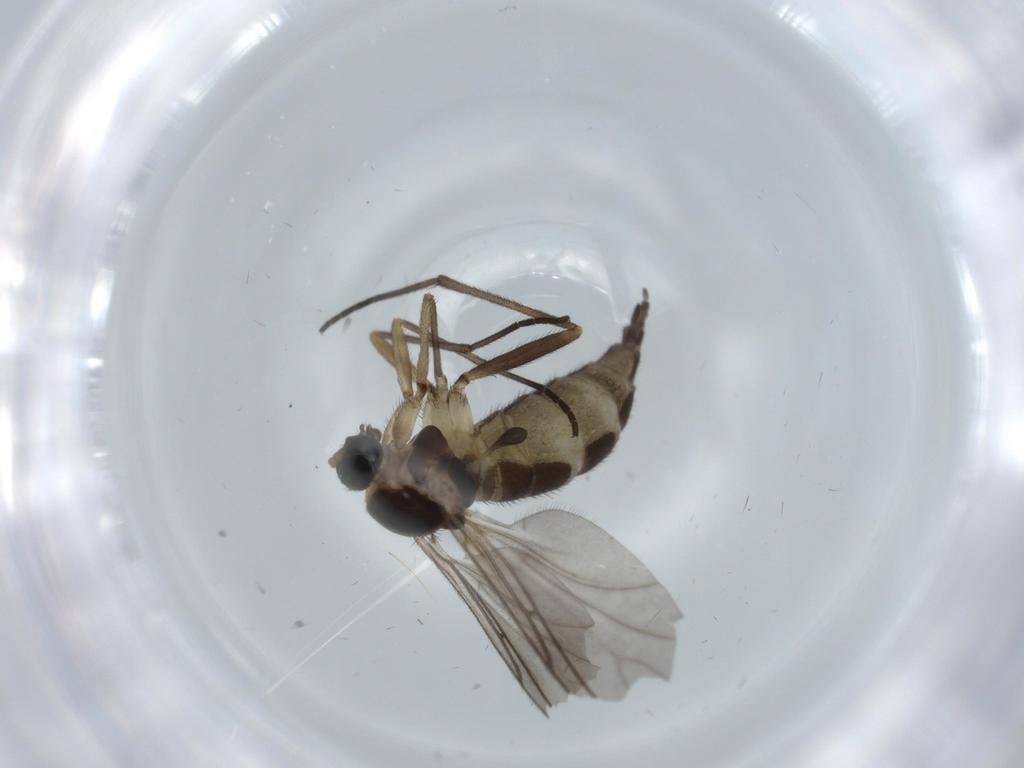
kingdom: Animalia
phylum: Arthropoda
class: Insecta
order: Diptera
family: Sciaridae
